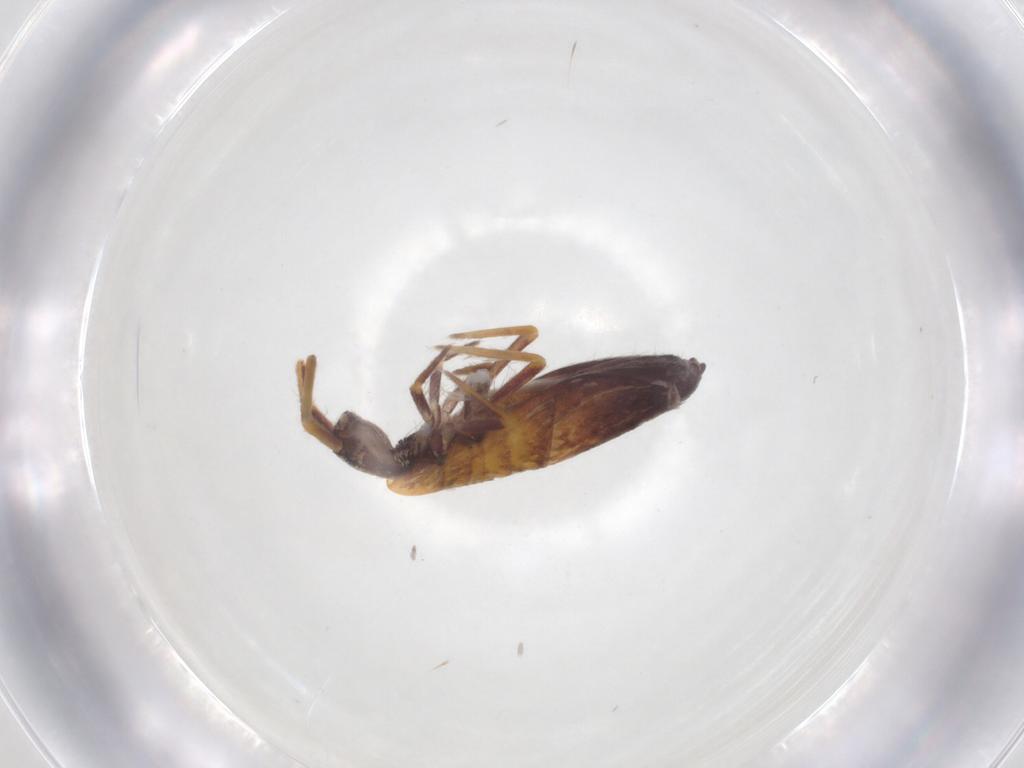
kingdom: Animalia
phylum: Arthropoda
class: Collembola
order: Entomobryomorpha
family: Entomobryidae
